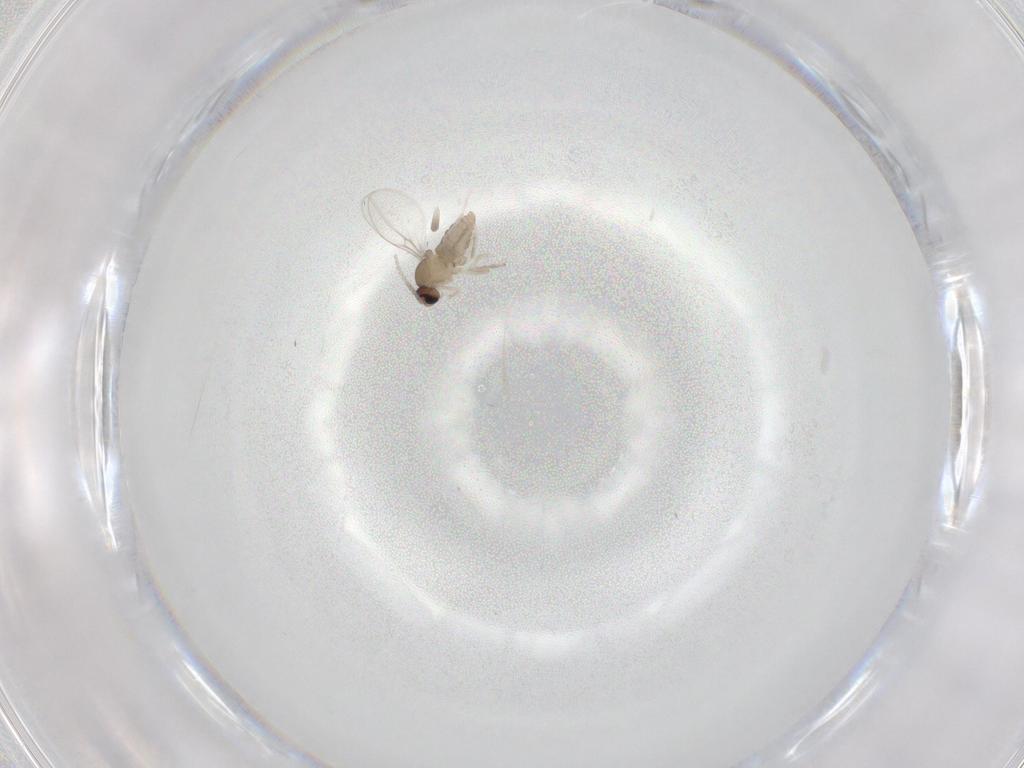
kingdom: Animalia
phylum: Arthropoda
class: Insecta
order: Diptera
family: Cecidomyiidae
